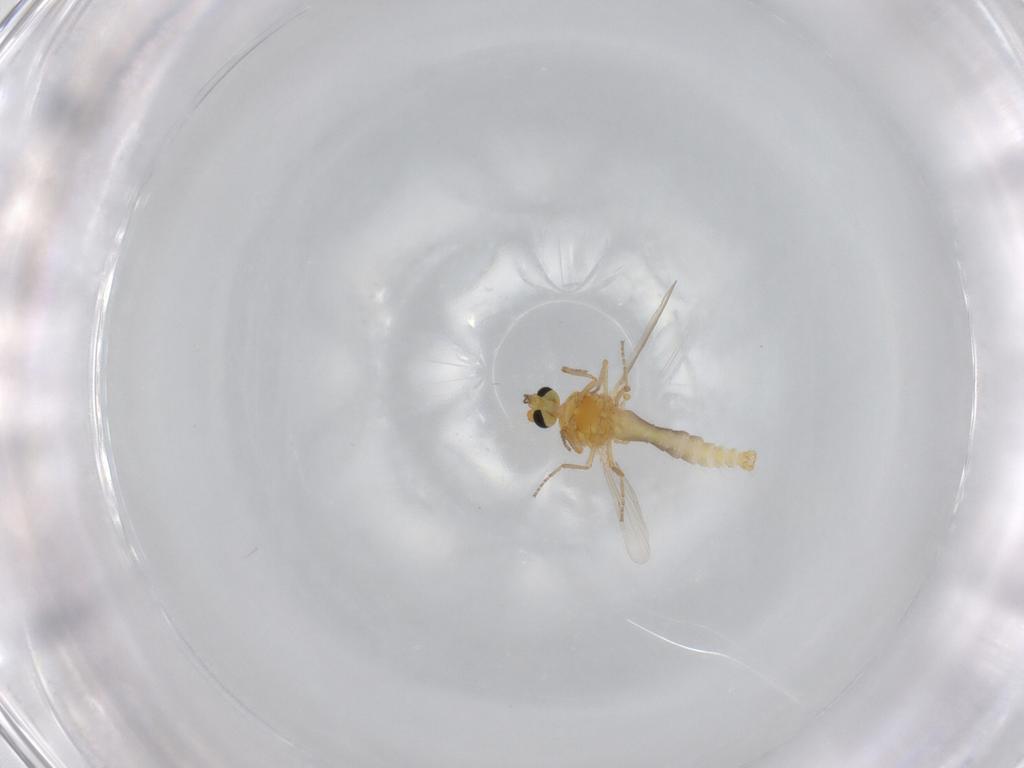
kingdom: Animalia
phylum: Arthropoda
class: Insecta
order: Diptera
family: Ceratopogonidae
